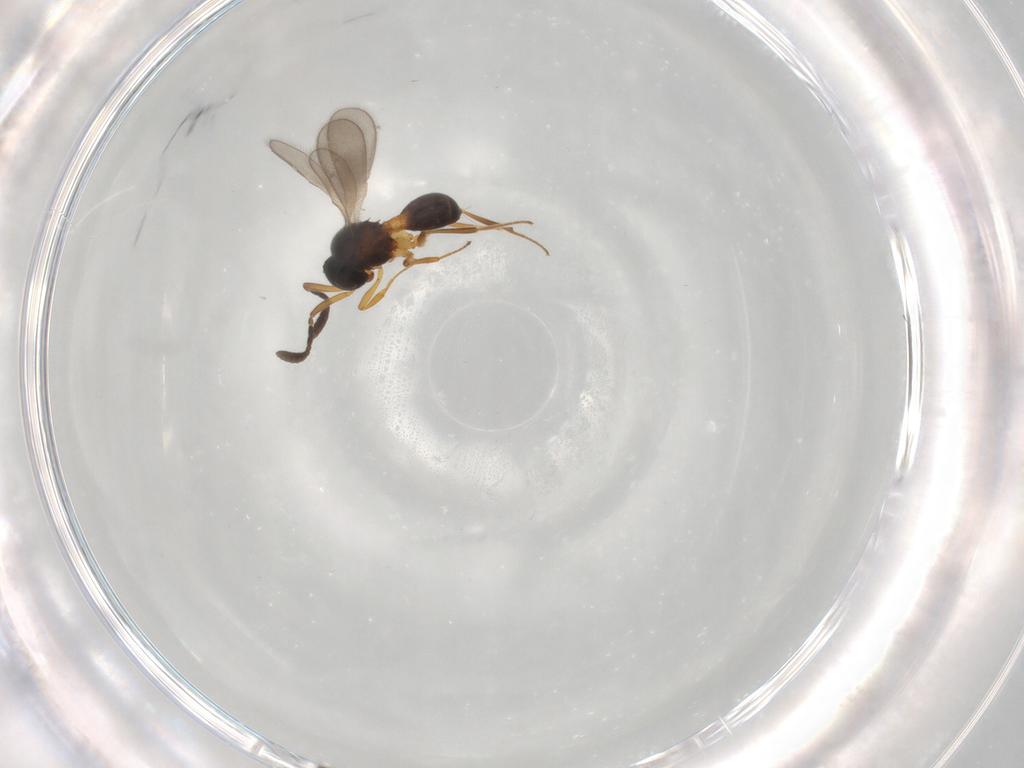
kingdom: Animalia
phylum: Arthropoda
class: Insecta
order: Hymenoptera
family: Scelionidae
